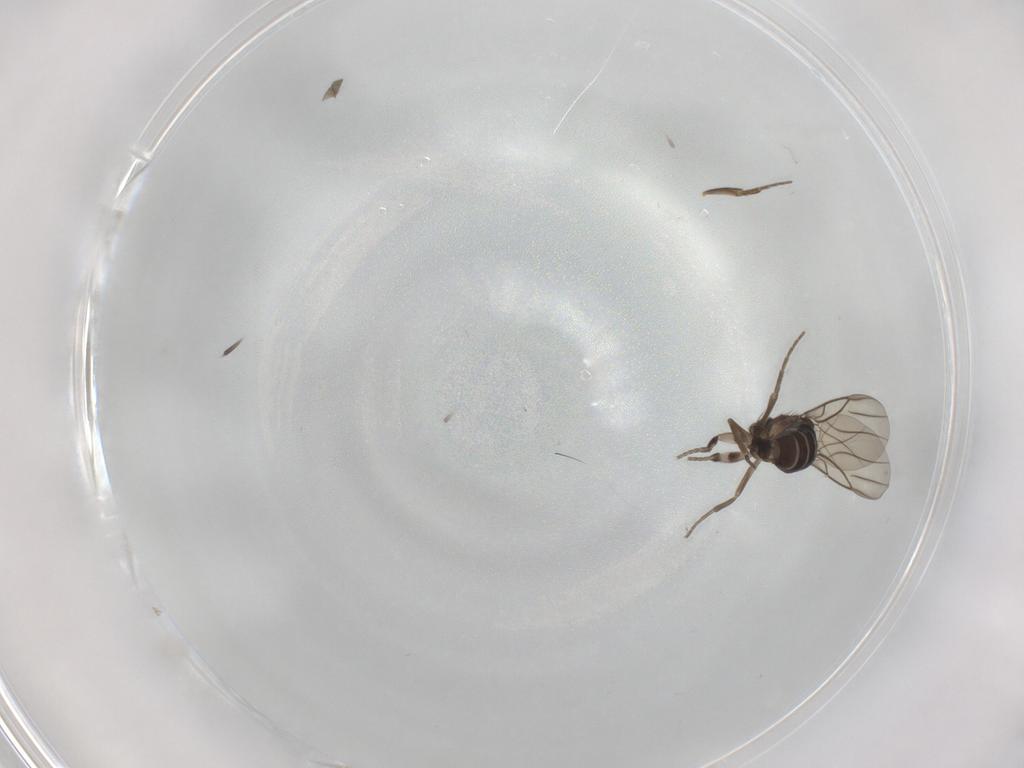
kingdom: Animalia
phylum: Arthropoda
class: Insecta
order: Diptera
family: Phoridae
